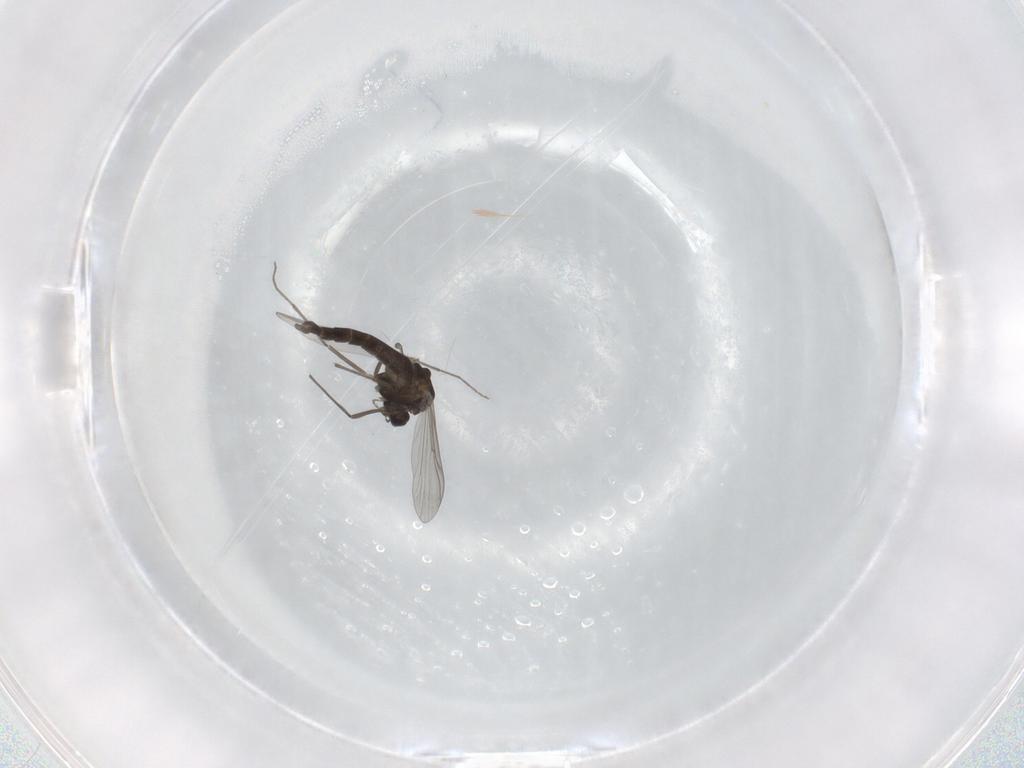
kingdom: Animalia
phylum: Arthropoda
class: Insecta
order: Diptera
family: Chironomidae
